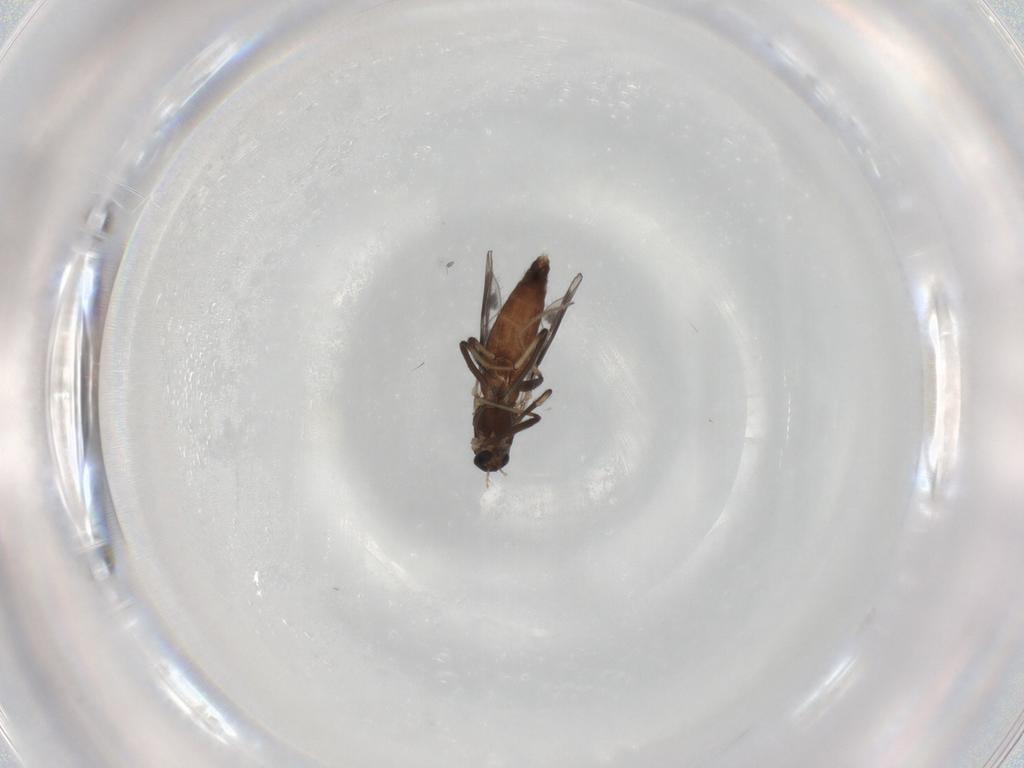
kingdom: Animalia
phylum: Arthropoda
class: Insecta
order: Diptera
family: Chironomidae
